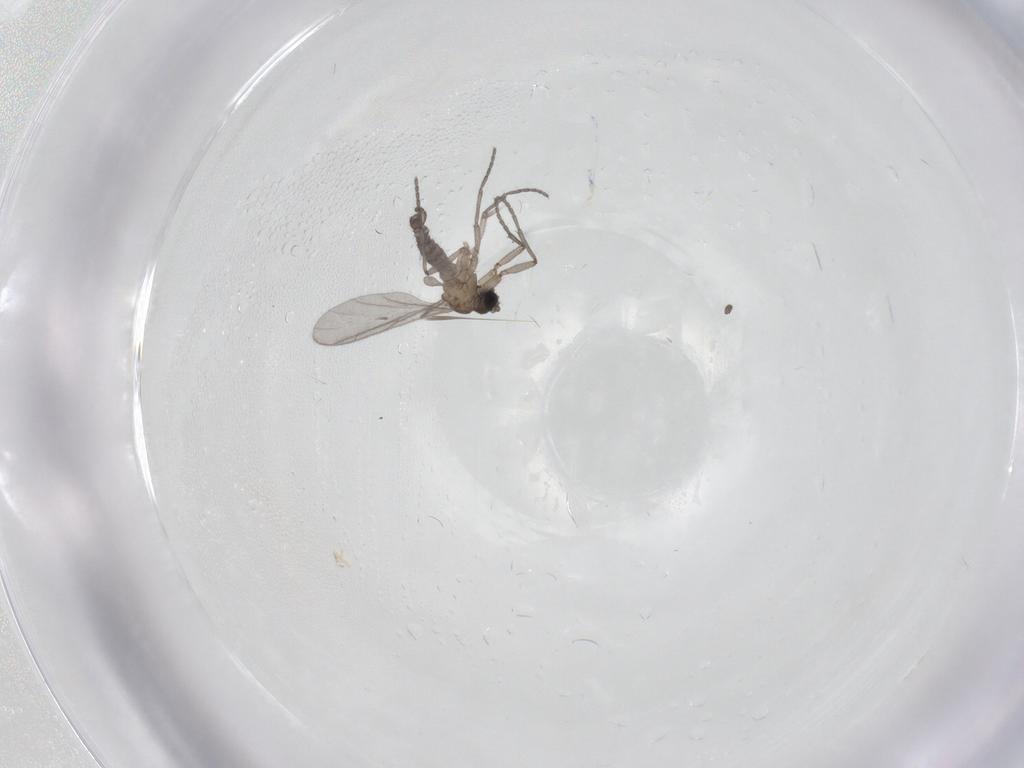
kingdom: Animalia
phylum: Arthropoda
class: Insecta
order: Diptera
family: Sciaridae
